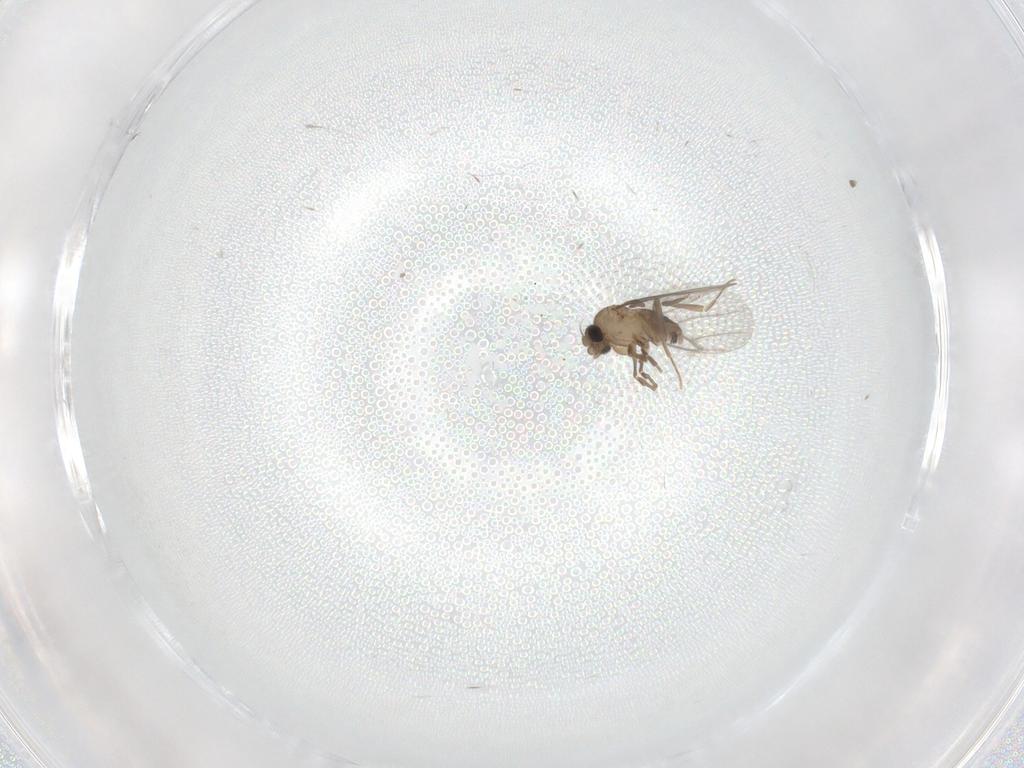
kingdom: Animalia
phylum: Arthropoda
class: Insecta
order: Diptera
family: Cecidomyiidae
